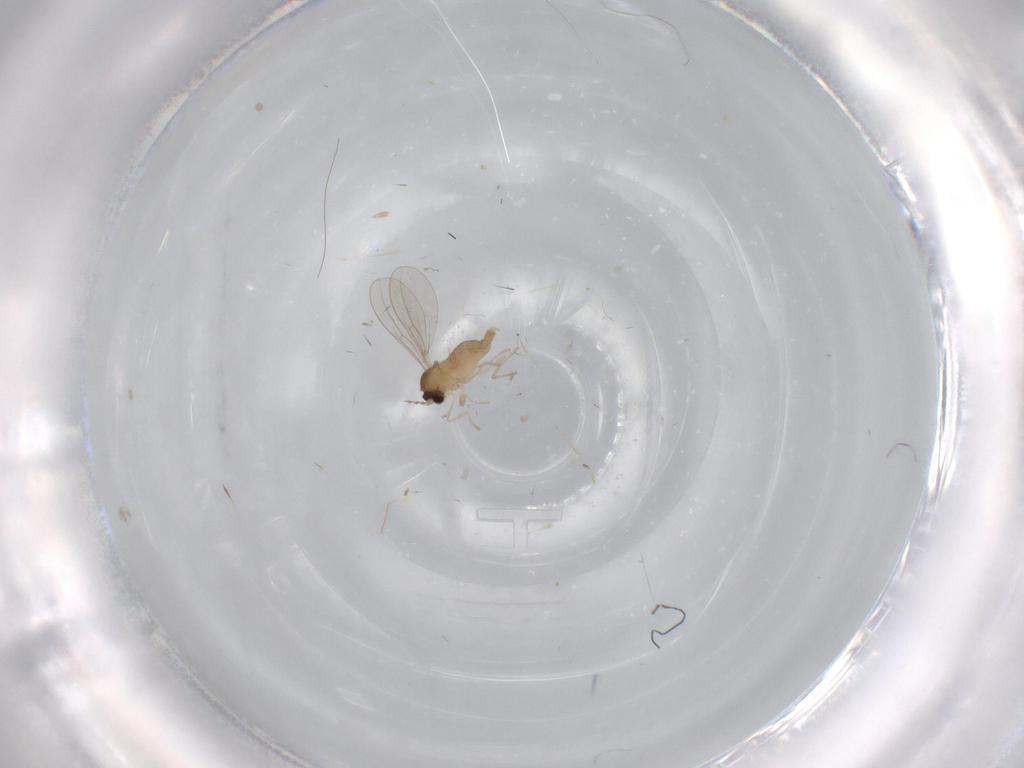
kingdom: Animalia
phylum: Arthropoda
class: Insecta
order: Diptera
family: Cecidomyiidae
